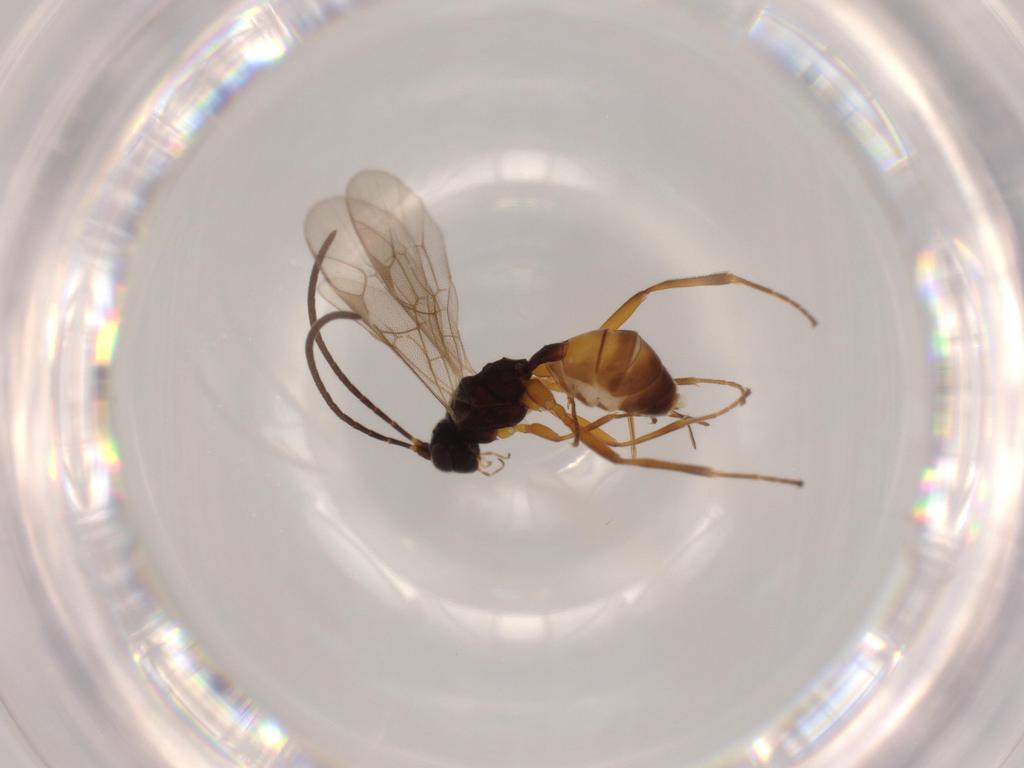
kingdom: Animalia
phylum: Arthropoda
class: Insecta
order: Hymenoptera
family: Ichneumonidae
